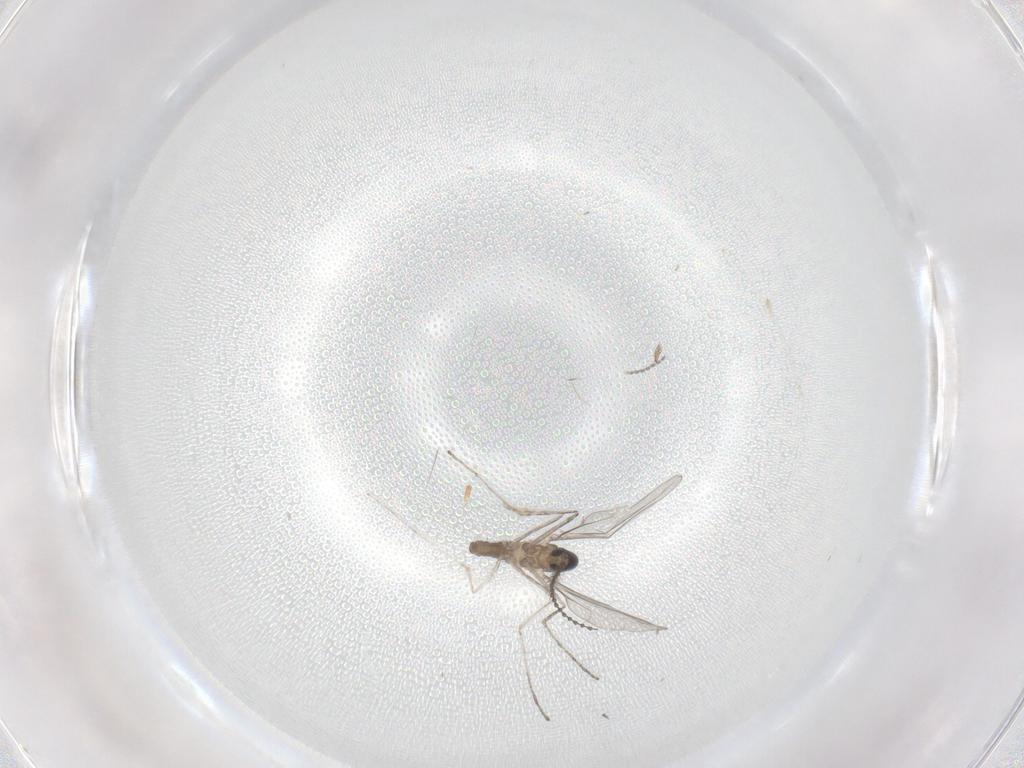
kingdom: Animalia
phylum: Arthropoda
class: Insecta
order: Diptera
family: Cecidomyiidae
